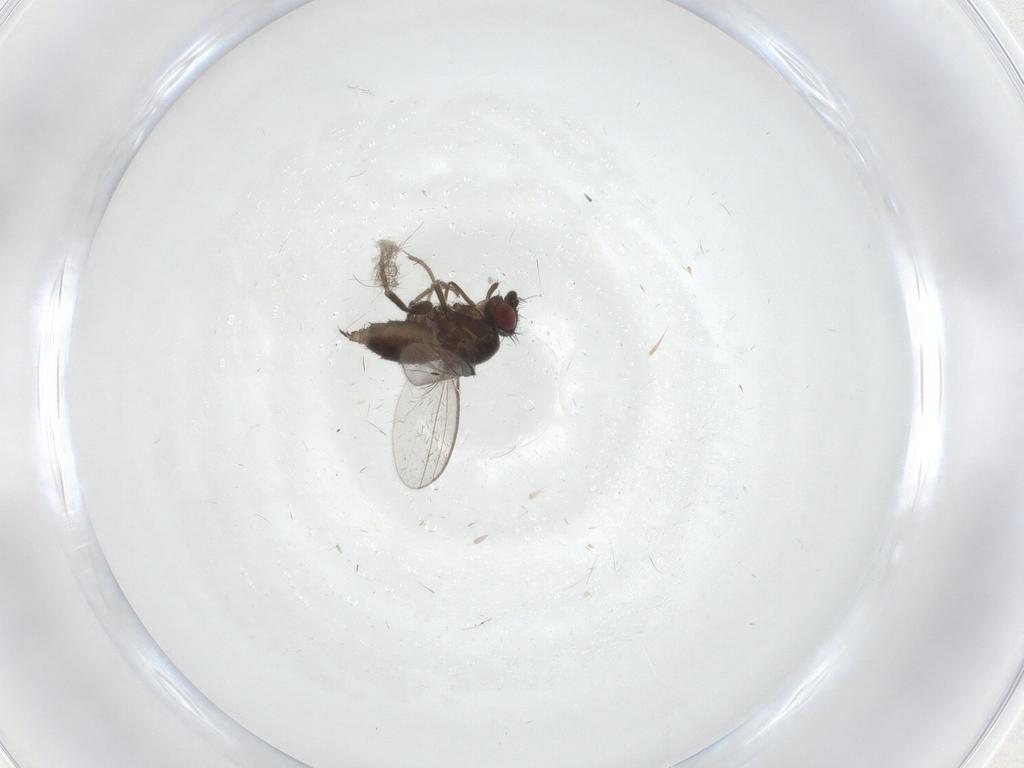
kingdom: Animalia
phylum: Arthropoda
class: Insecta
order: Diptera
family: Milichiidae
